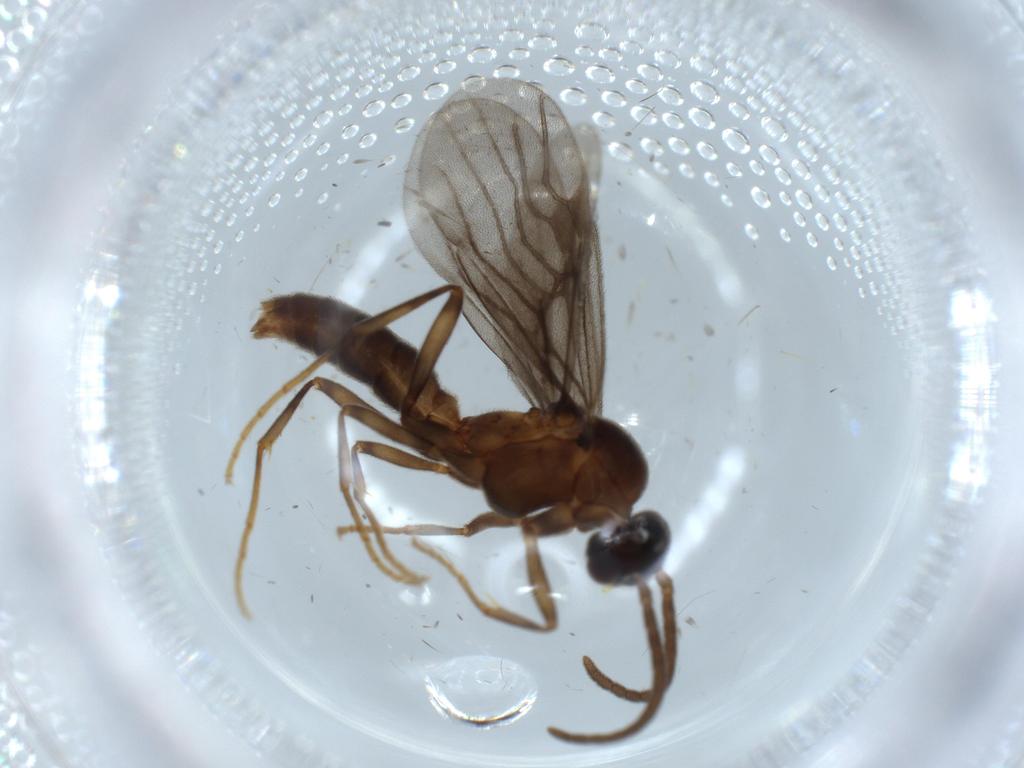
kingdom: Animalia
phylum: Arthropoda
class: Insecta
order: Hymenoptera
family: Formicidae
